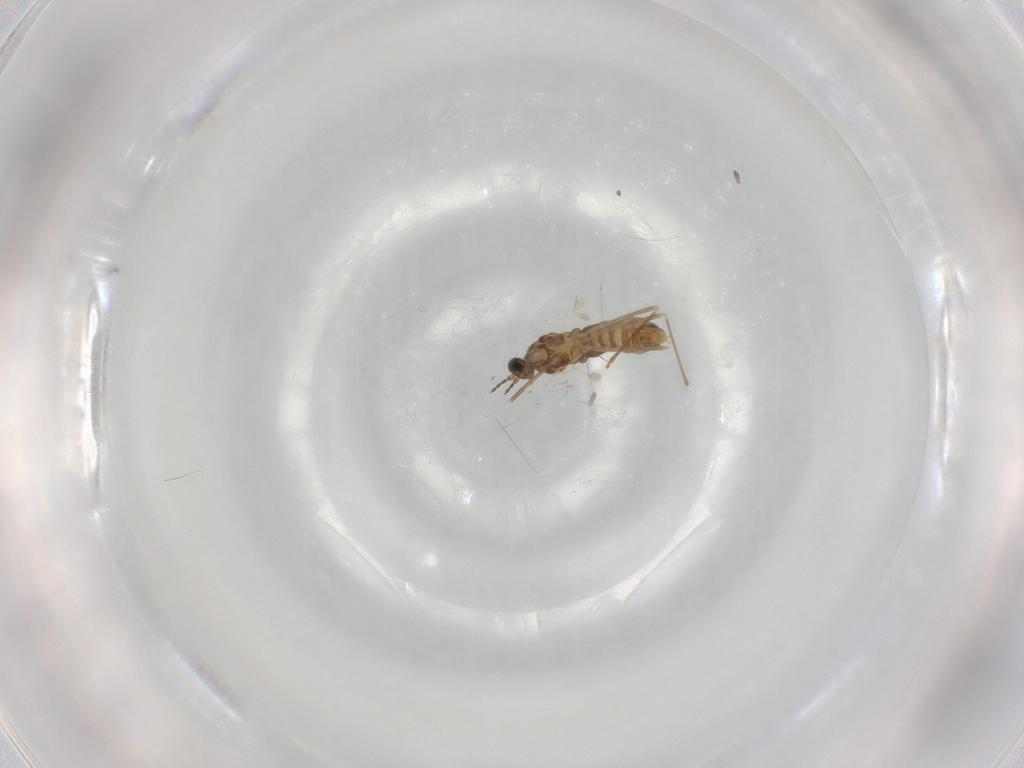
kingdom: Animalia
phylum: Arthropoda
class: Insecta
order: Diptera
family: Cecidomyiidae
